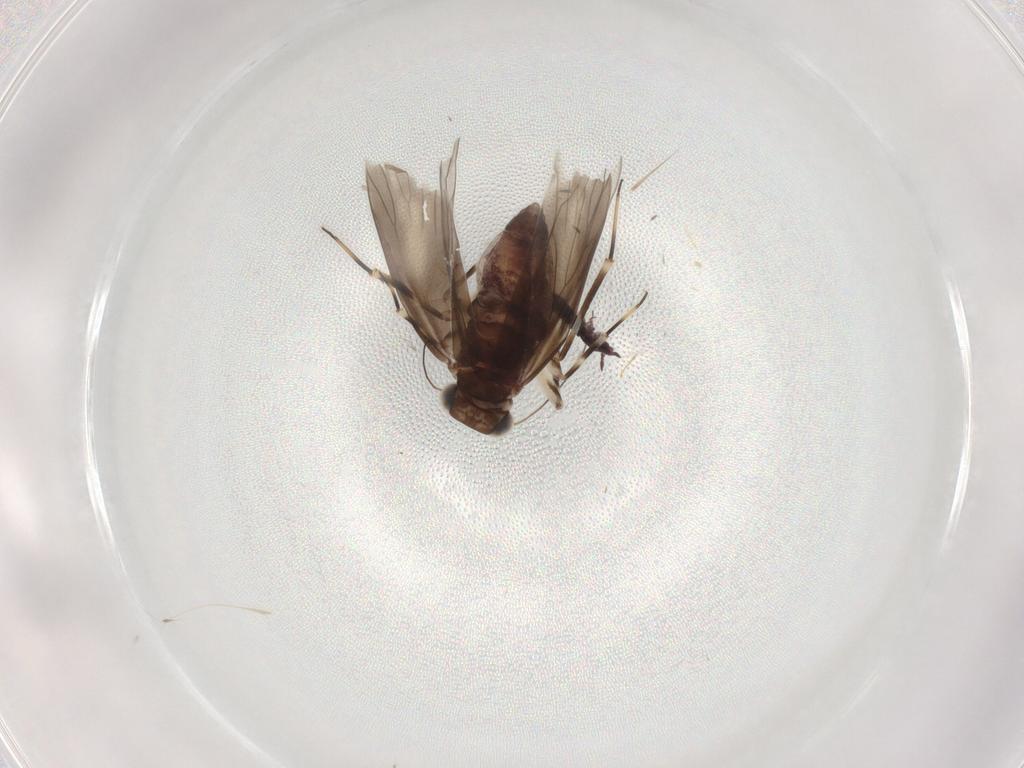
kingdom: Animalia
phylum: Arthropoda
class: Insecta
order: Psocodea
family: Amphientomidae
